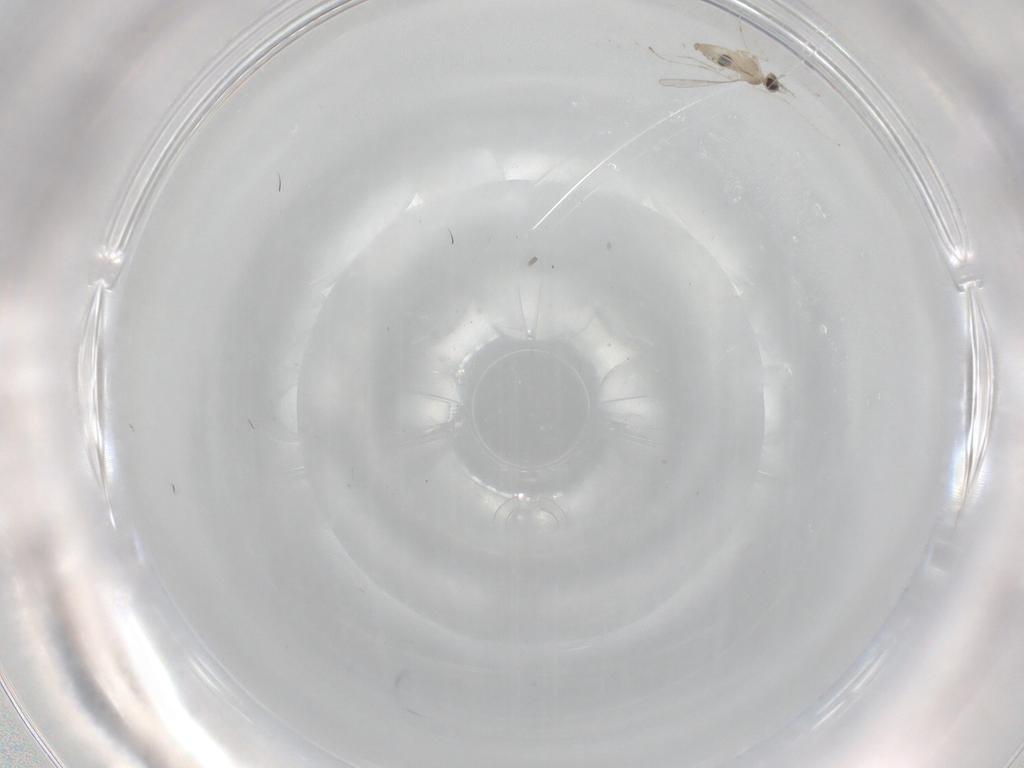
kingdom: Animalia
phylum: Arthropoda
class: Insecta
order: Diptera
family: Cecidomyiidae
